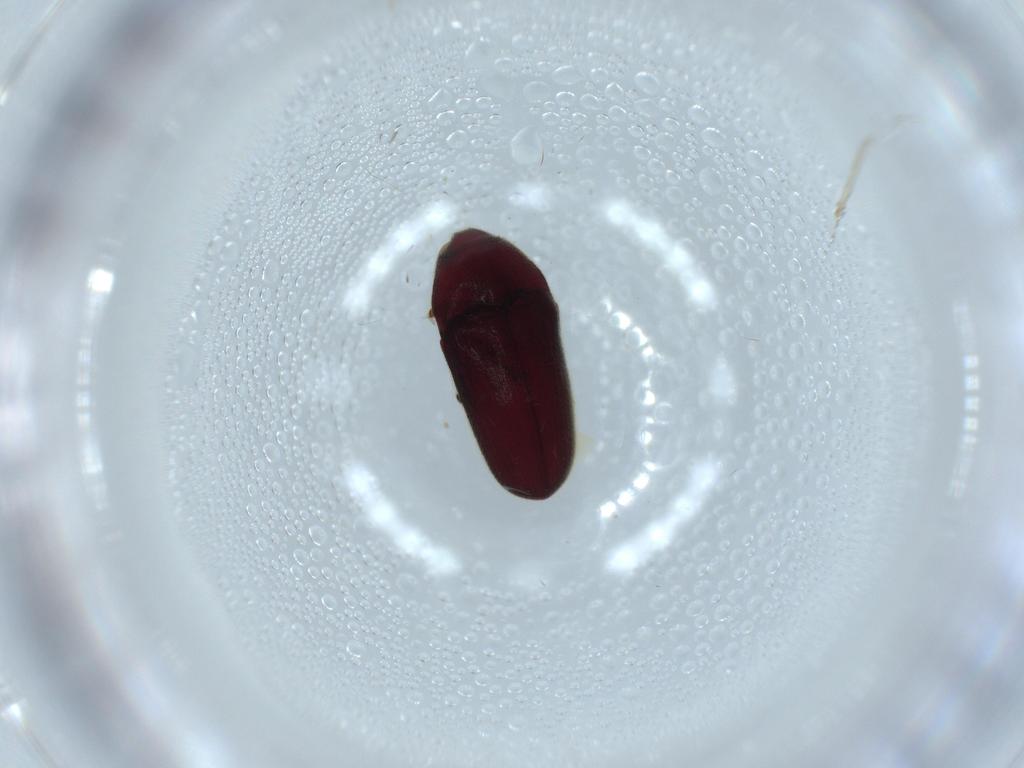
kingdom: Animalia
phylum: Arthropoda
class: Insecta
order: Coleoptera
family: Throscidae
